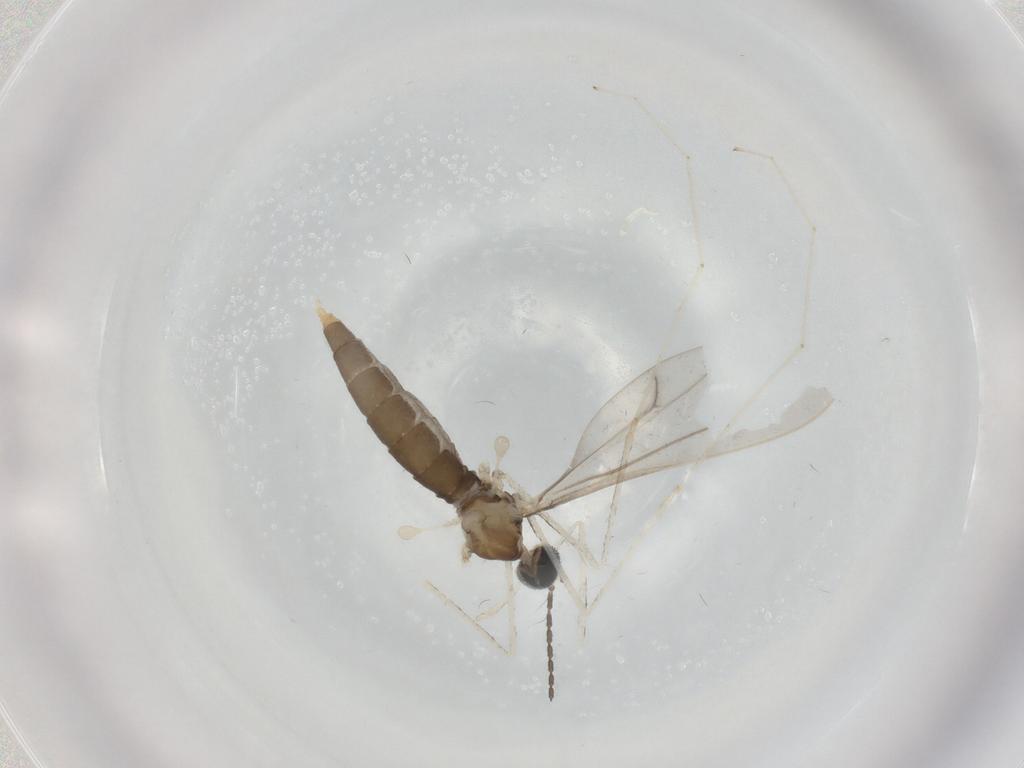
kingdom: Animalia
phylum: Arthropoda
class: Insecta
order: Diptera
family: Cecidomyiidae
